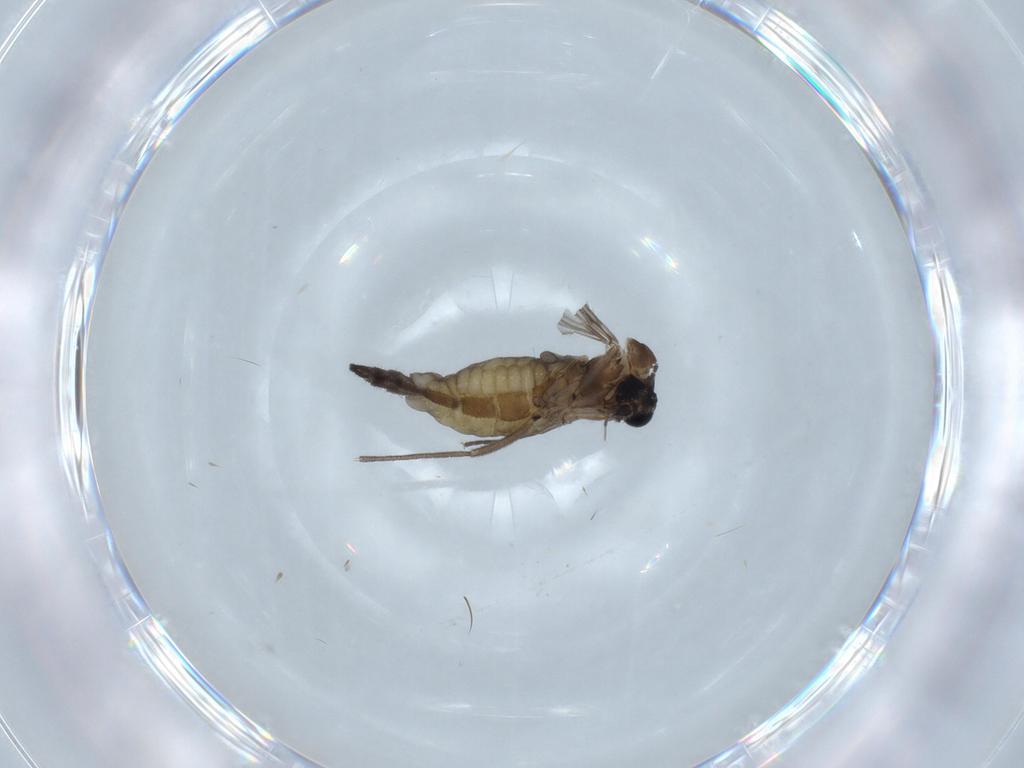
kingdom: Animalia
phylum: Arthropoda
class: Insecta
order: Diptera
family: Sciaridae
